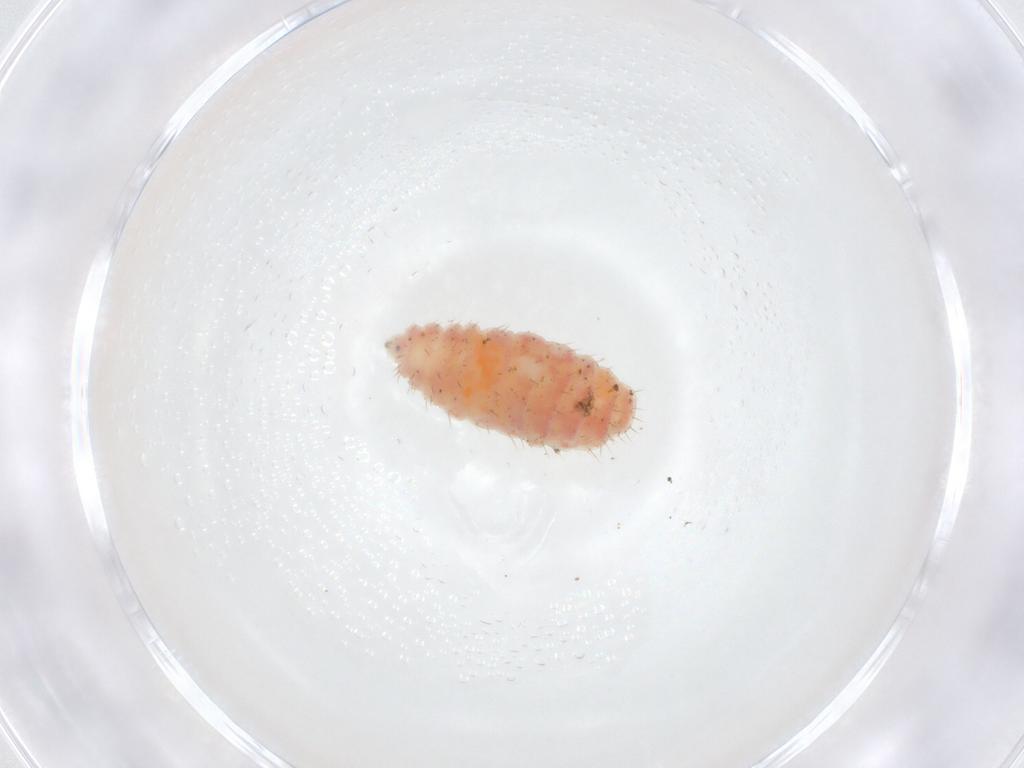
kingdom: Animalia
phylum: Arthropoda
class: Insecta
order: Diptera
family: Cecidomyiidae
